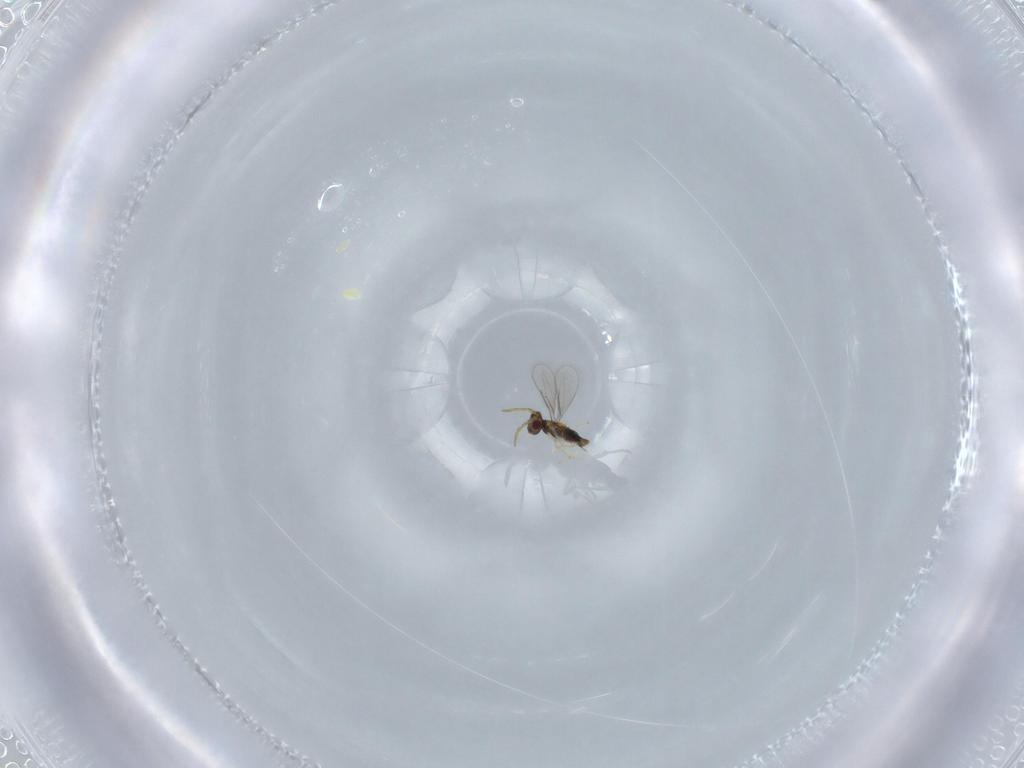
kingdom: Animalia
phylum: Arthropoda
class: Insecta
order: Hymenoptera
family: Aphelinidae
